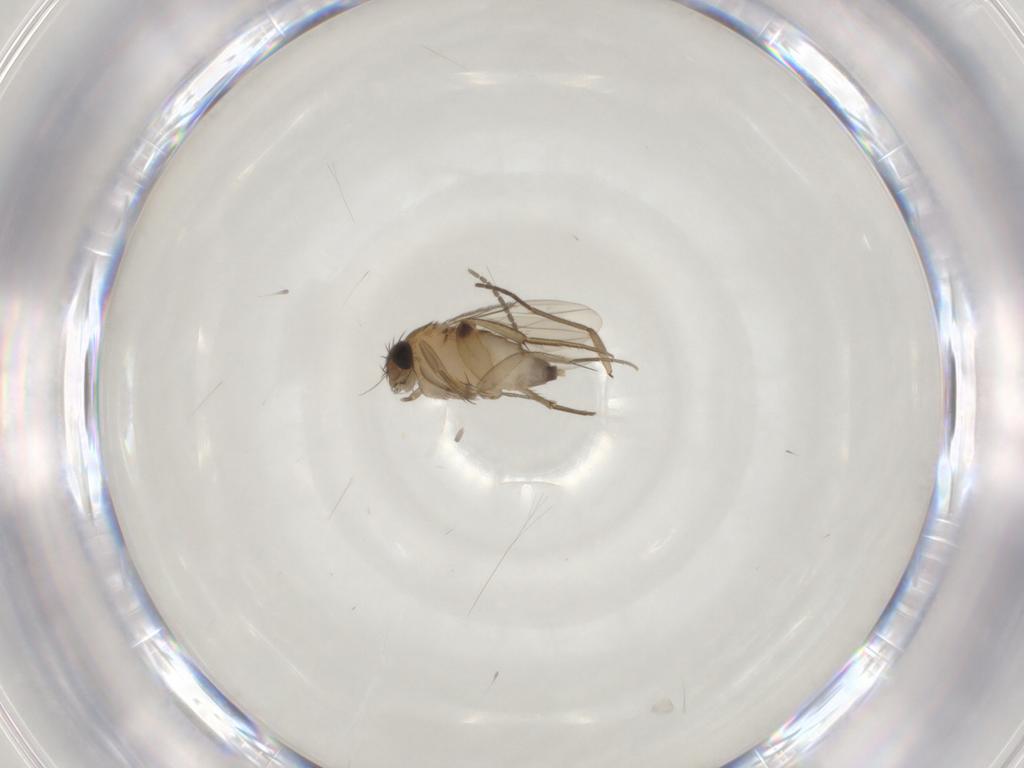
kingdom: Animalia
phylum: Arthropoda
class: Insecta
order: Diptera
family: Phoridae
